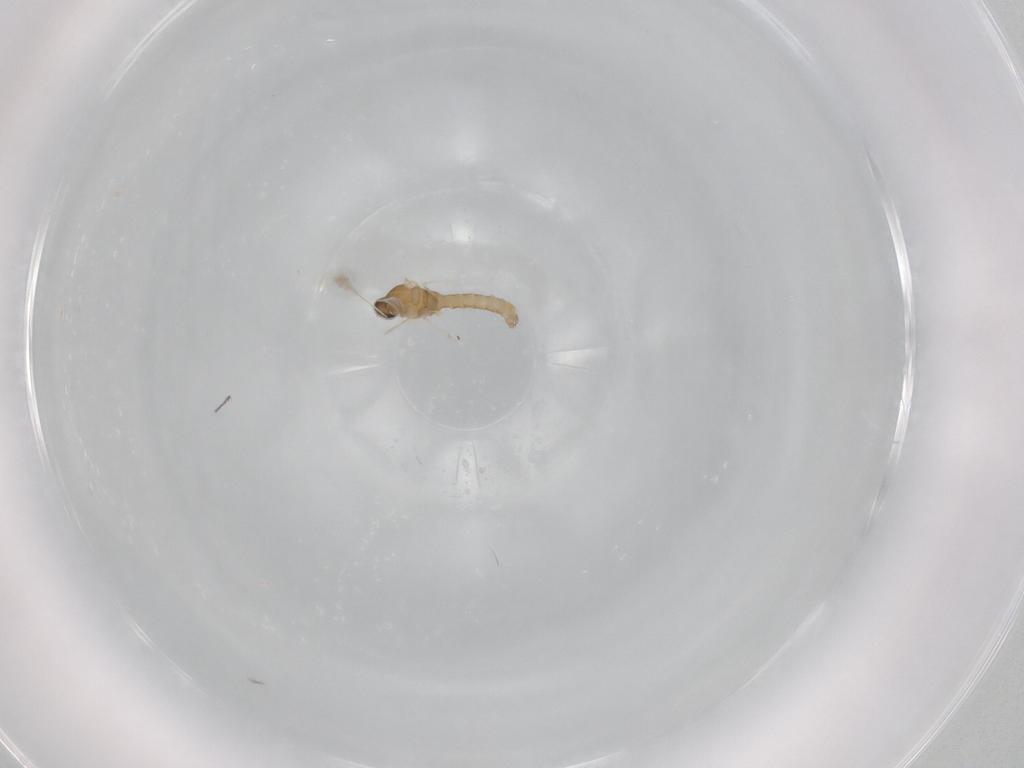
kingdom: Animalia
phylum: Arthropoda
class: Insecta
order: Diptera
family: Cecidomyiidae
